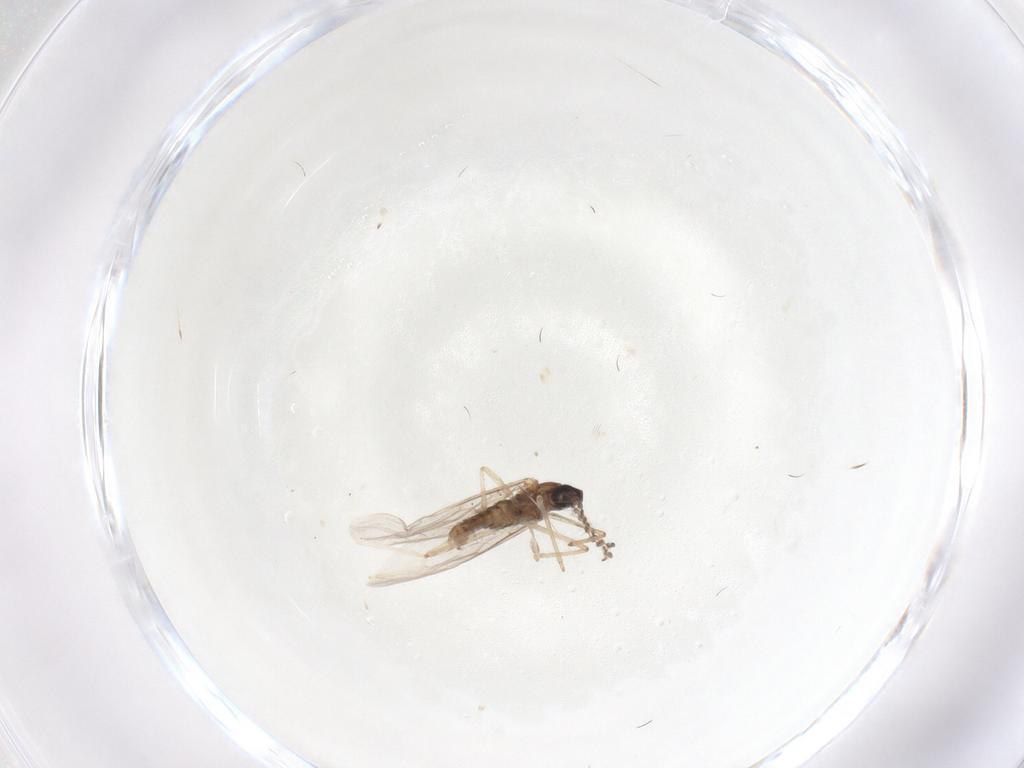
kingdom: Animalia
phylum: Arthropoda
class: Insecta
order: Diptera
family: Cecidomyiidae
